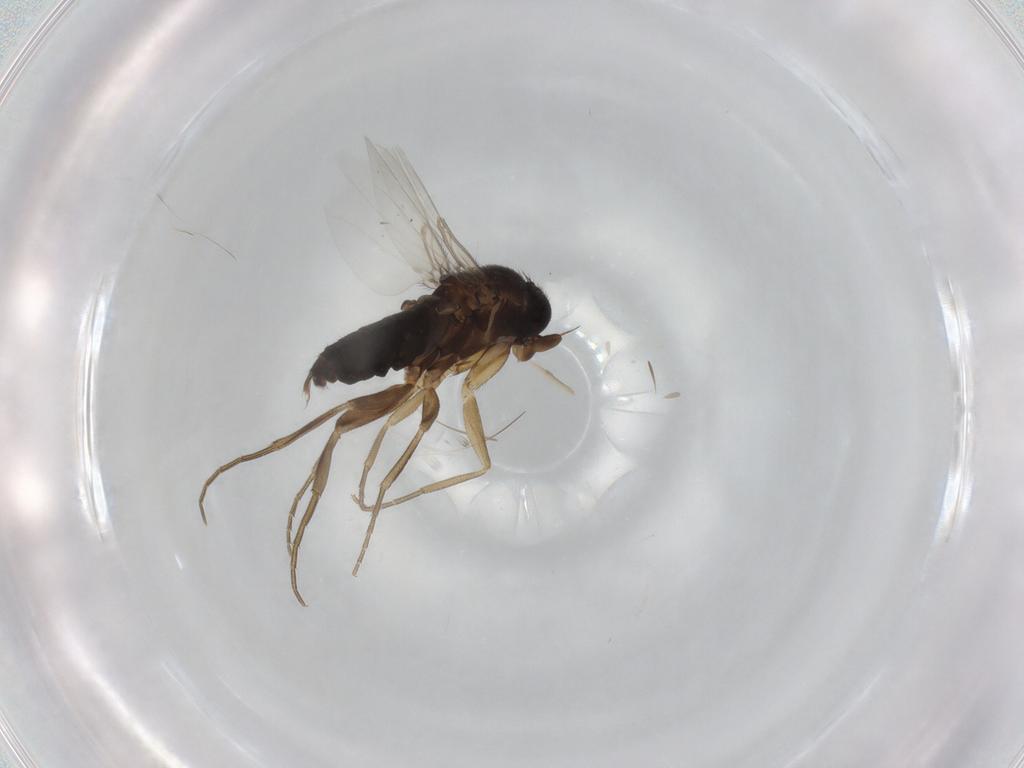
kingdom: Animalia
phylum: Arthropoda
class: Insecta
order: Diptera
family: Phoridae
